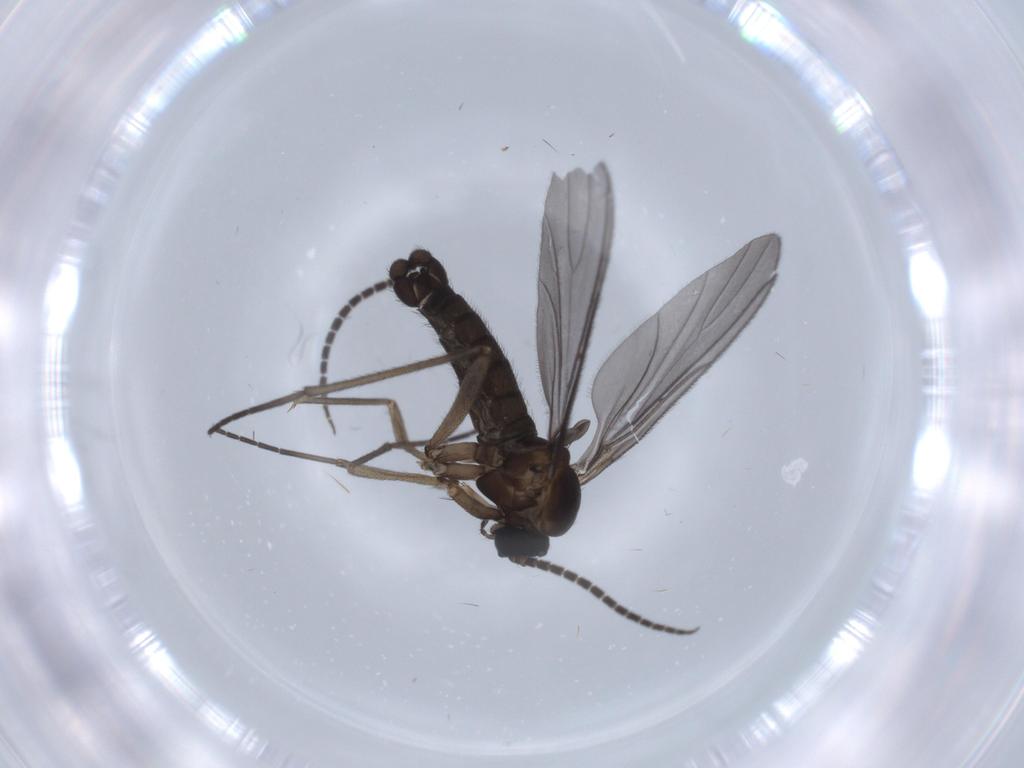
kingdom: Animalia
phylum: Arthropoda
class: Insecta
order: Diptera
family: Sciaridae
